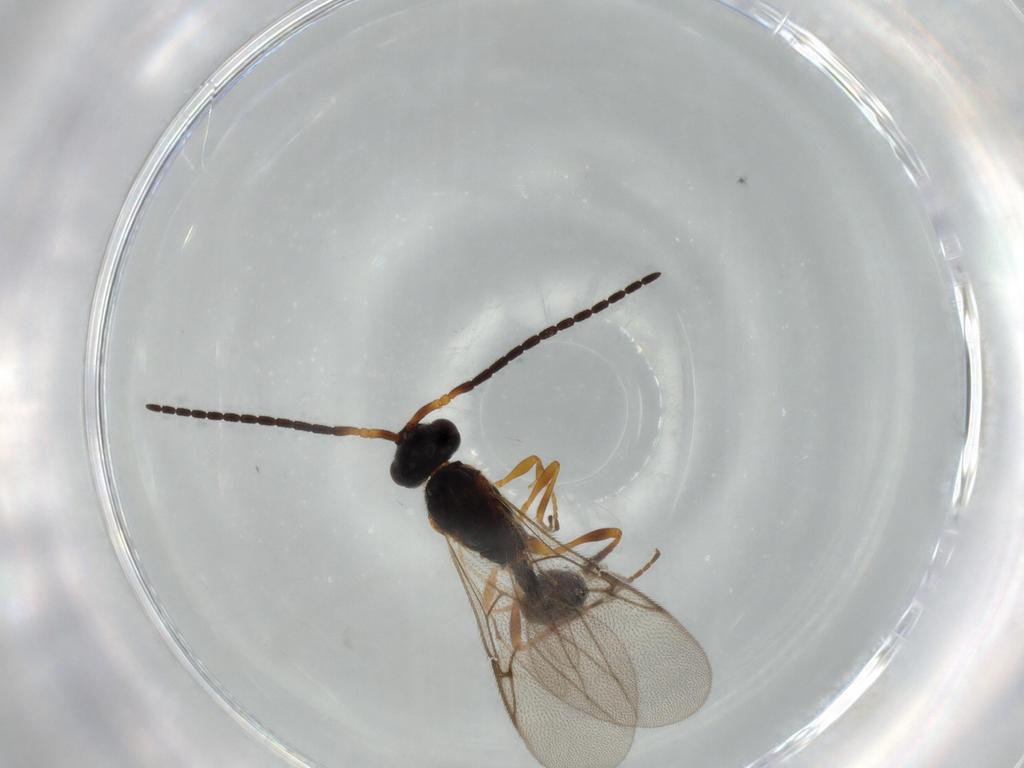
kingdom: Animalia
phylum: Arthropoda
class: Insecta
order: Hymenoptera
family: Diapriidae
